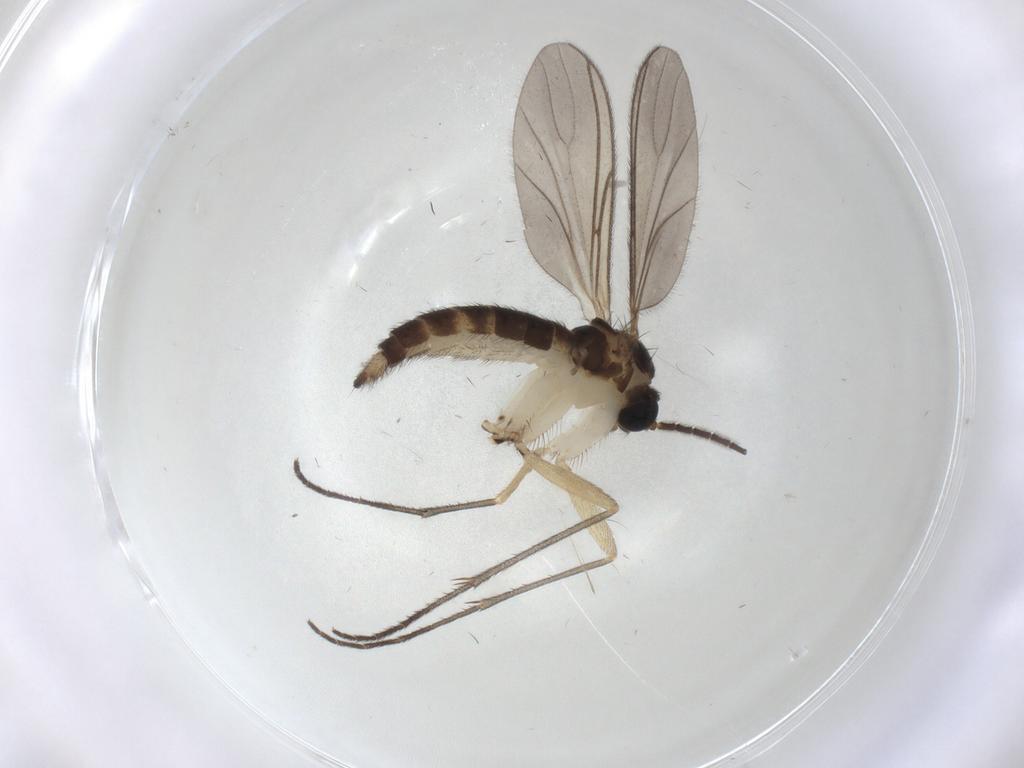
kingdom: Animalia
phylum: Arthropoda
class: Insecta
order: Diptera
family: Sciaridae
